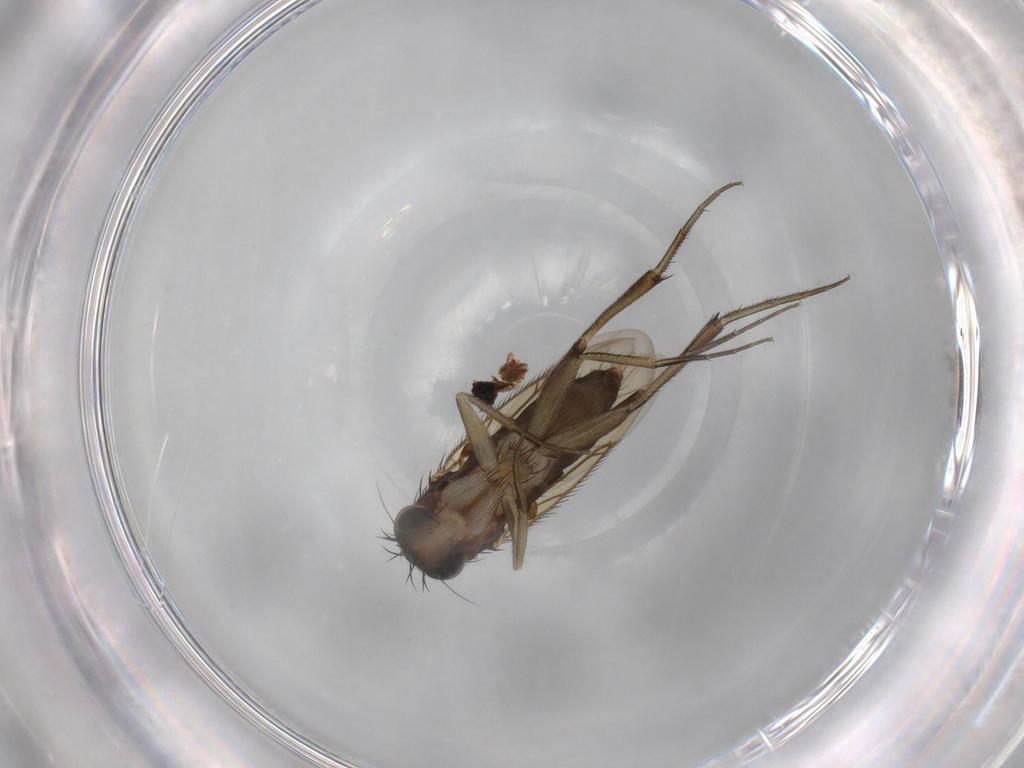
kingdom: Animalia
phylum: Arthropoda
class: Insecta
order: Diptera
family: Phoridae
